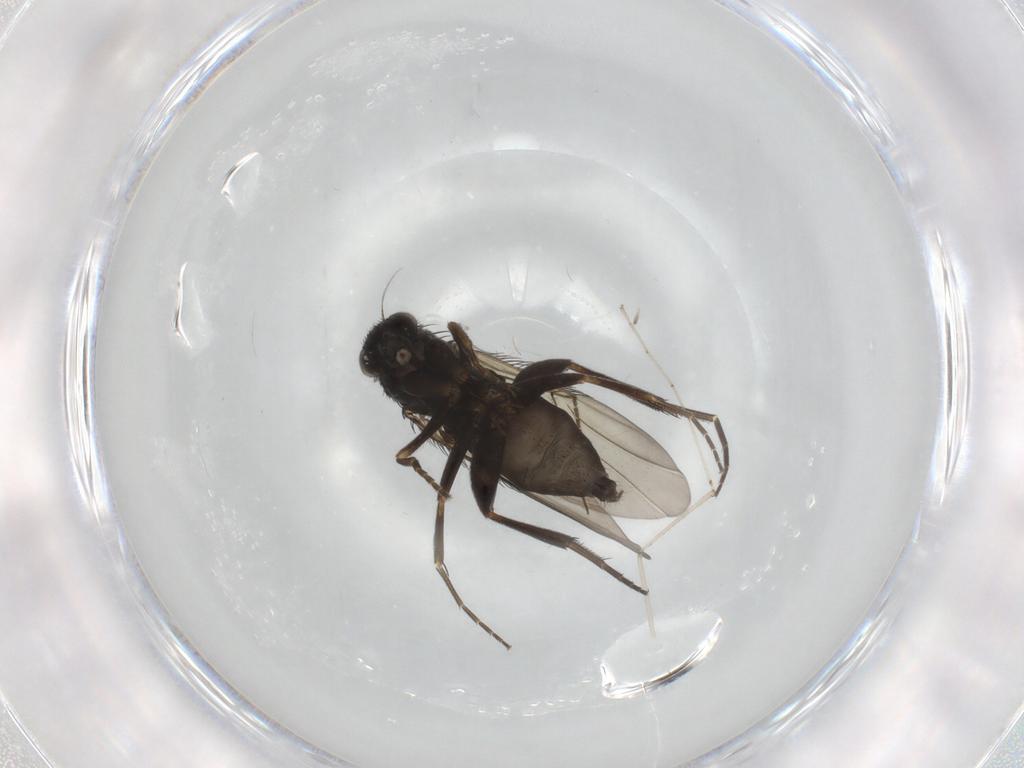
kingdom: Animalia
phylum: Arthropoda
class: Insecta
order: Diptera
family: Phoridae
